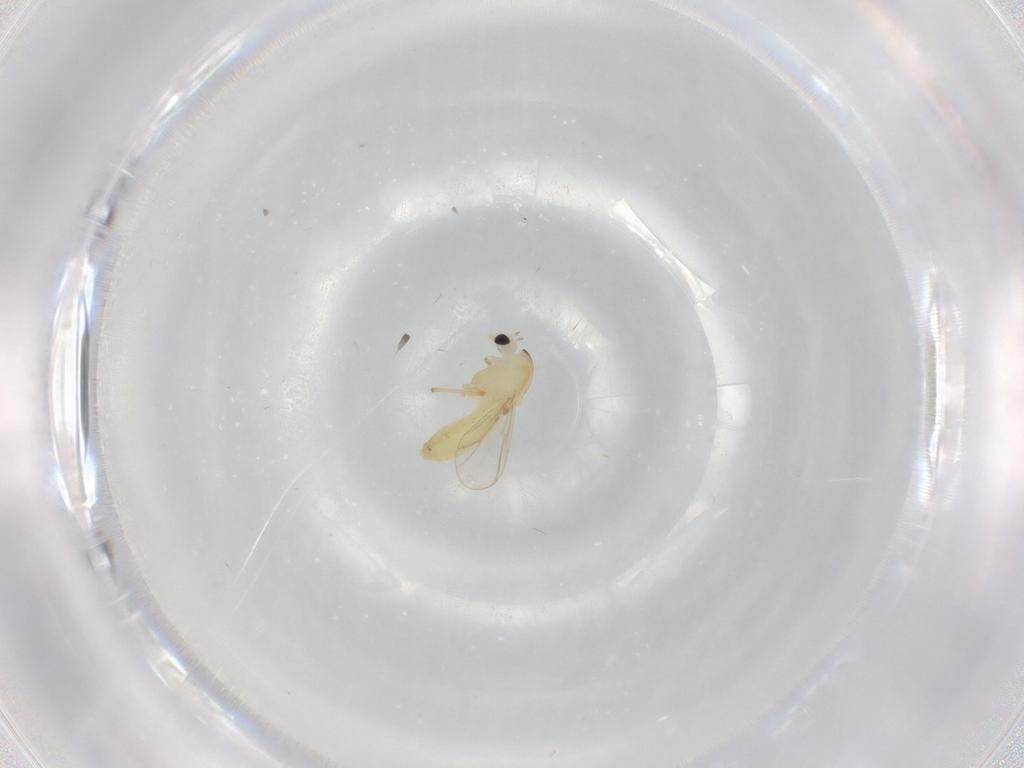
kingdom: Animalia
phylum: Arthropoda
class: Insecta
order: Diptera
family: Chironomidae
